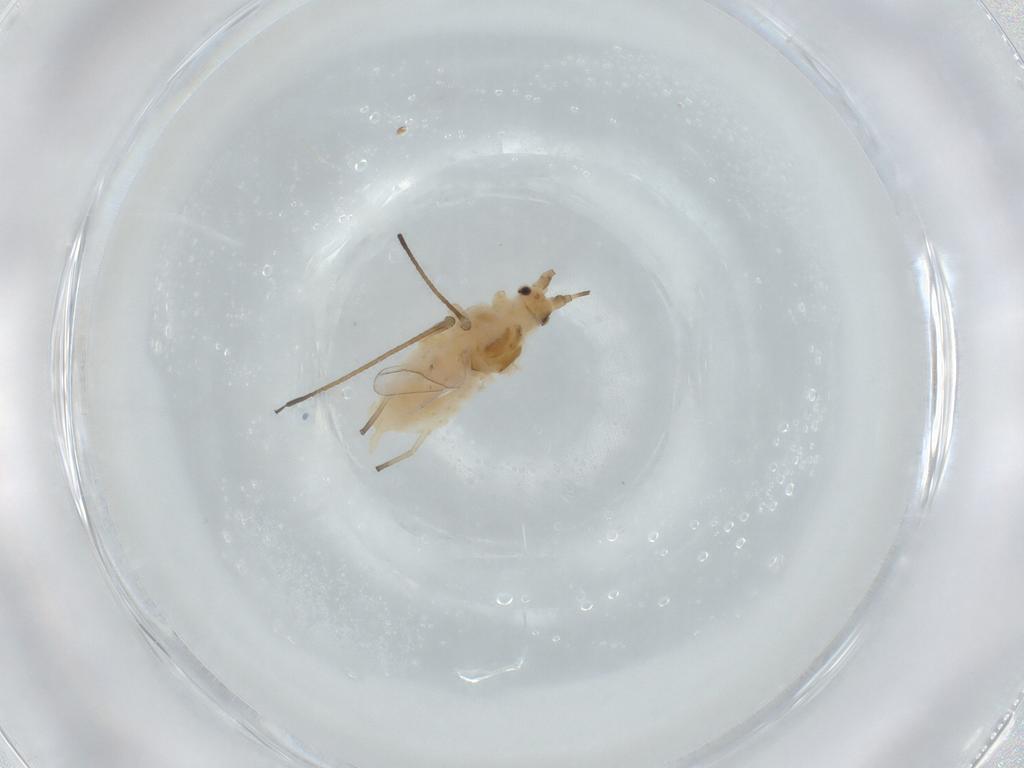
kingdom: Animalia
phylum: Arthropoda
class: Insecta
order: Hemiptera
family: Aphididae
